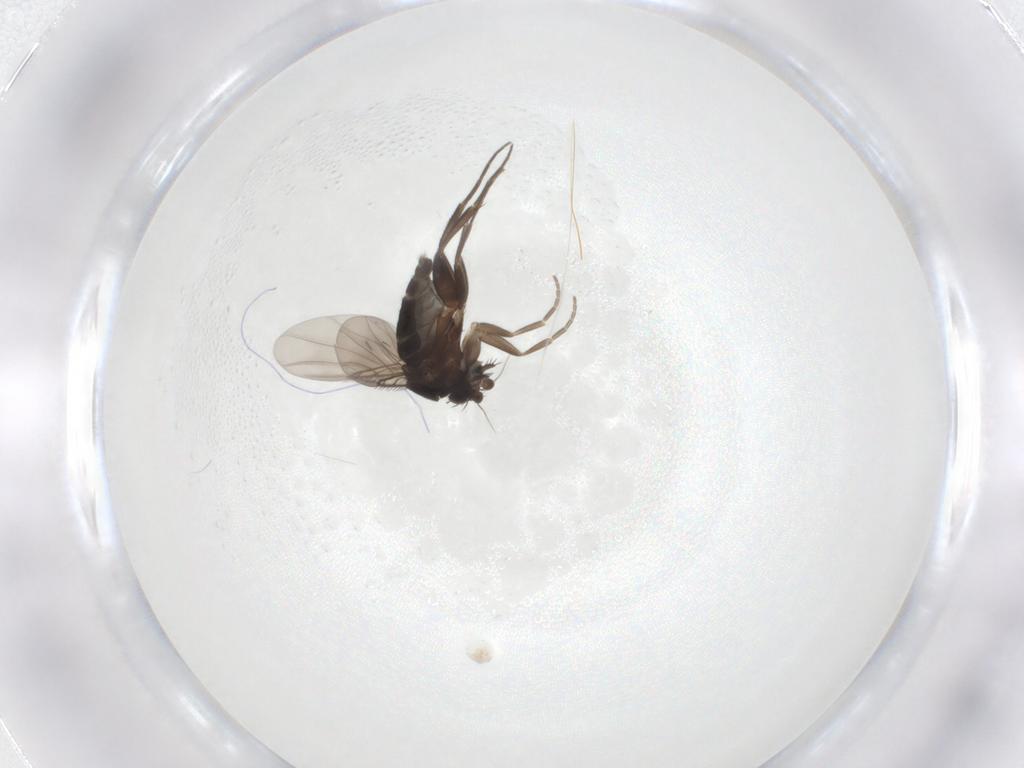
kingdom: Animalia
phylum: Arthropoda
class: Insecta
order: Diptera
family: Phoridae
